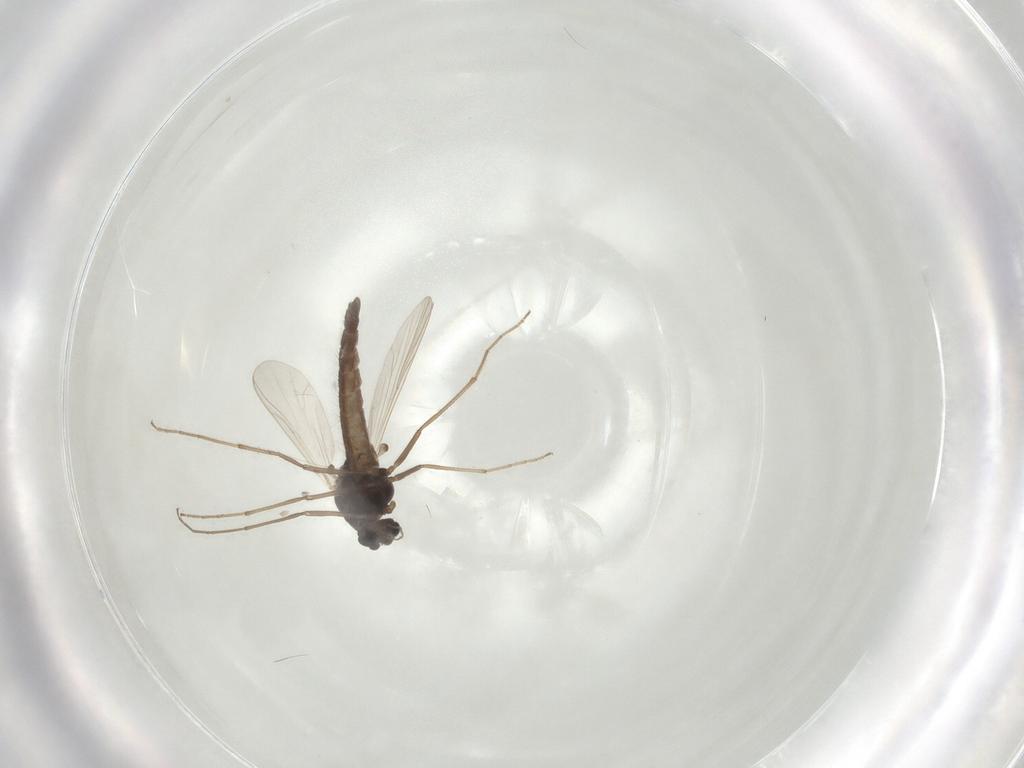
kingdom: Animalia
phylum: Arthropoda
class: Insecta
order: Diptera
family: Chironomidae
